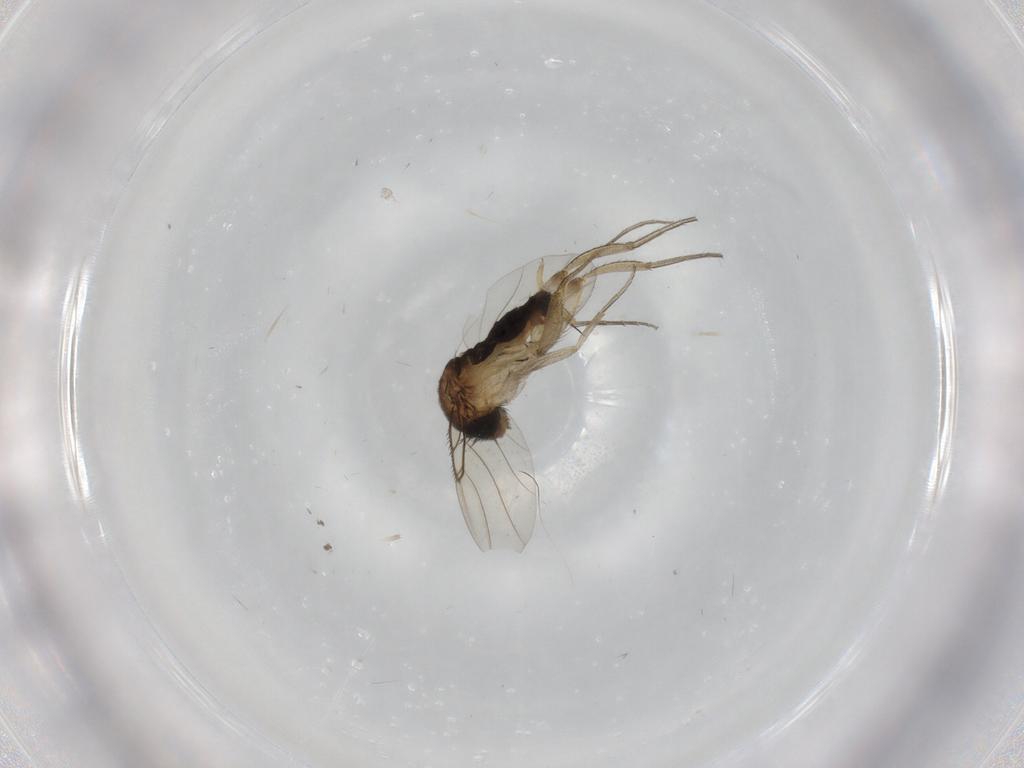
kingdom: Animalia
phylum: Arthropoda
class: Insecta
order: Diptera
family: Phoridae
